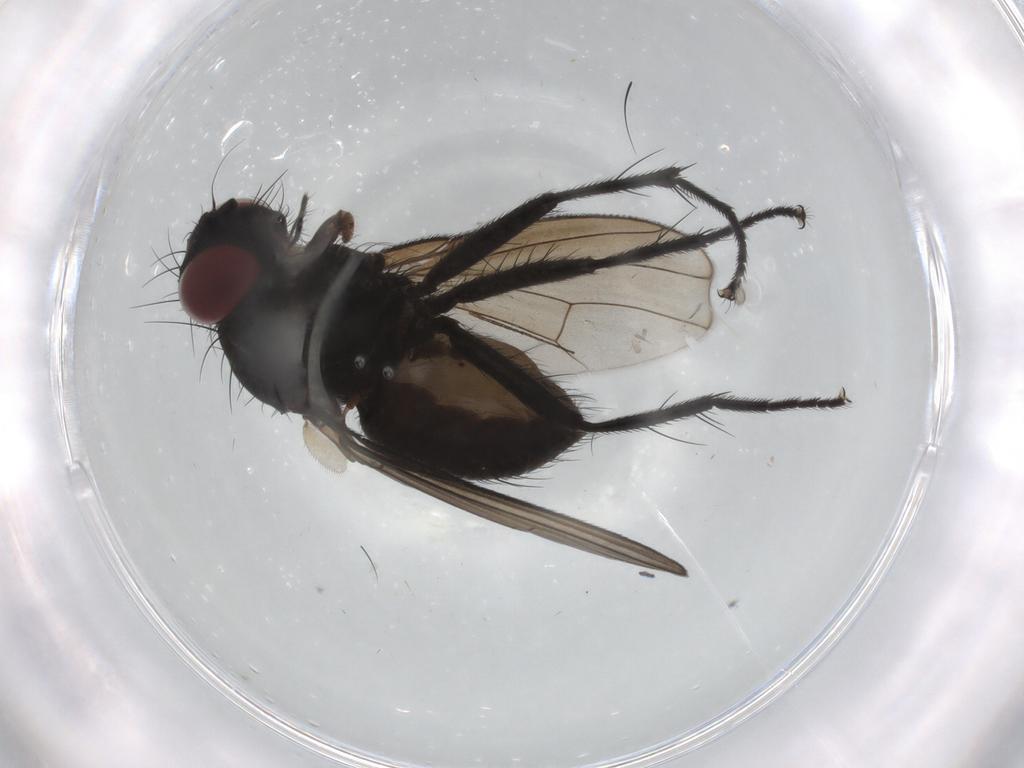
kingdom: Animalia
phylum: Arthropoda
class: Insecta
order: Diptera
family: Muscidae
